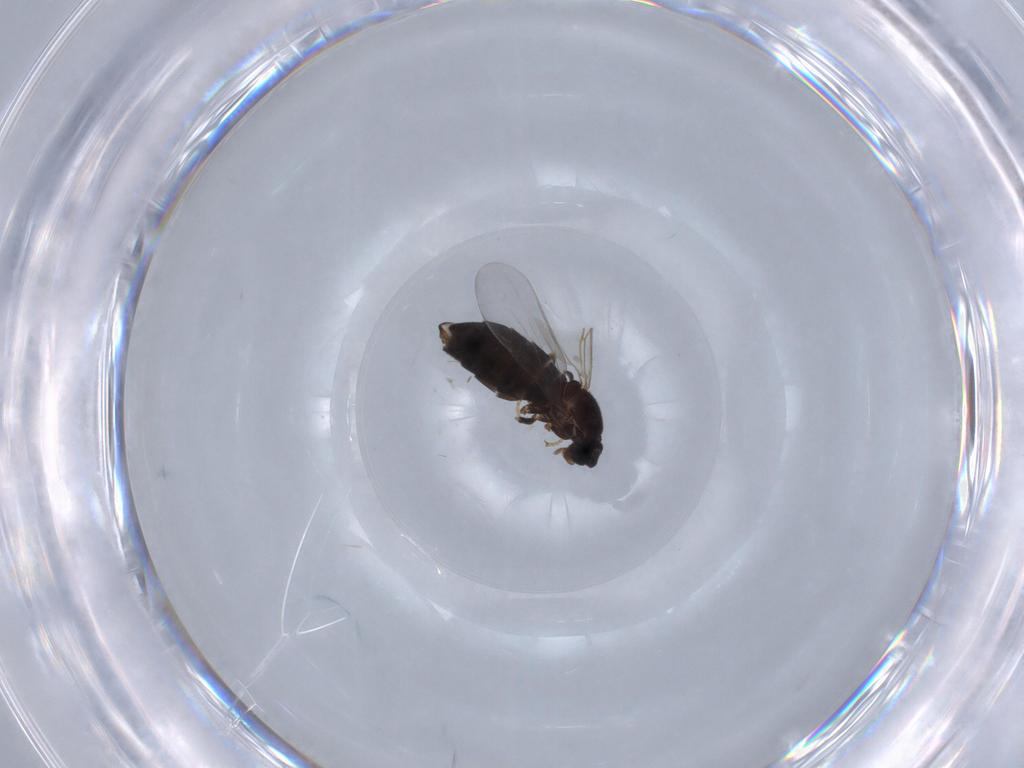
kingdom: Animalia
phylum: Arthropoda
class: Insecta
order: Diptera
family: Scatopsidae
